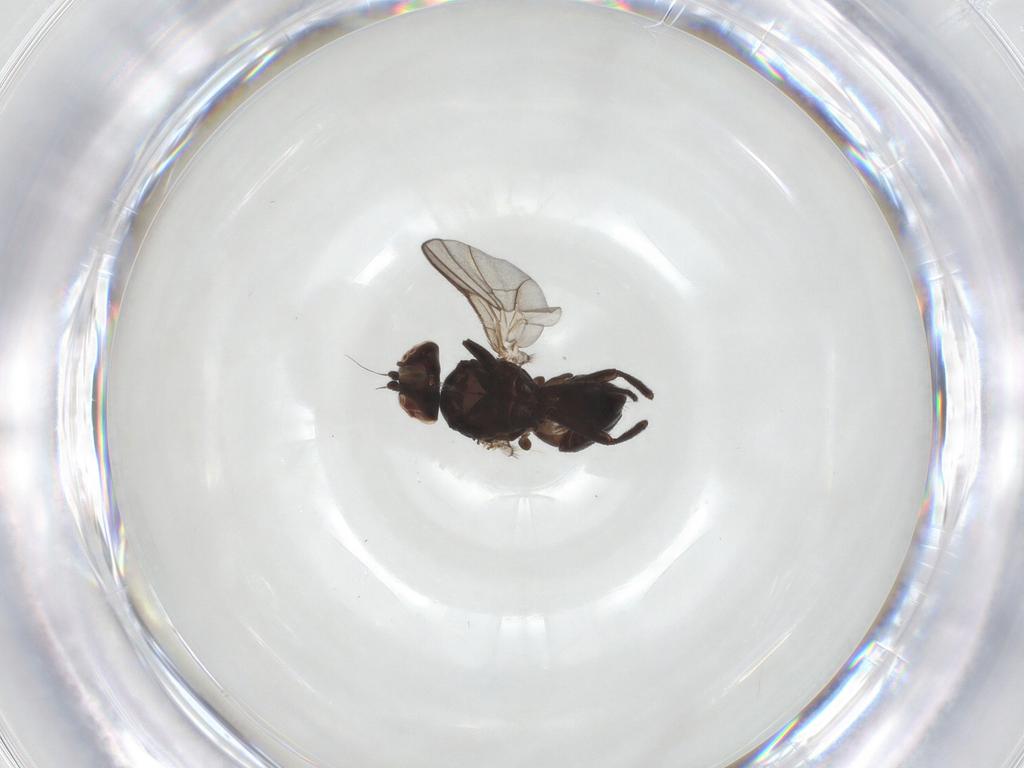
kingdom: Animalia
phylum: Arthropoda
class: Insecta
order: Diptera
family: Agromyzidae
